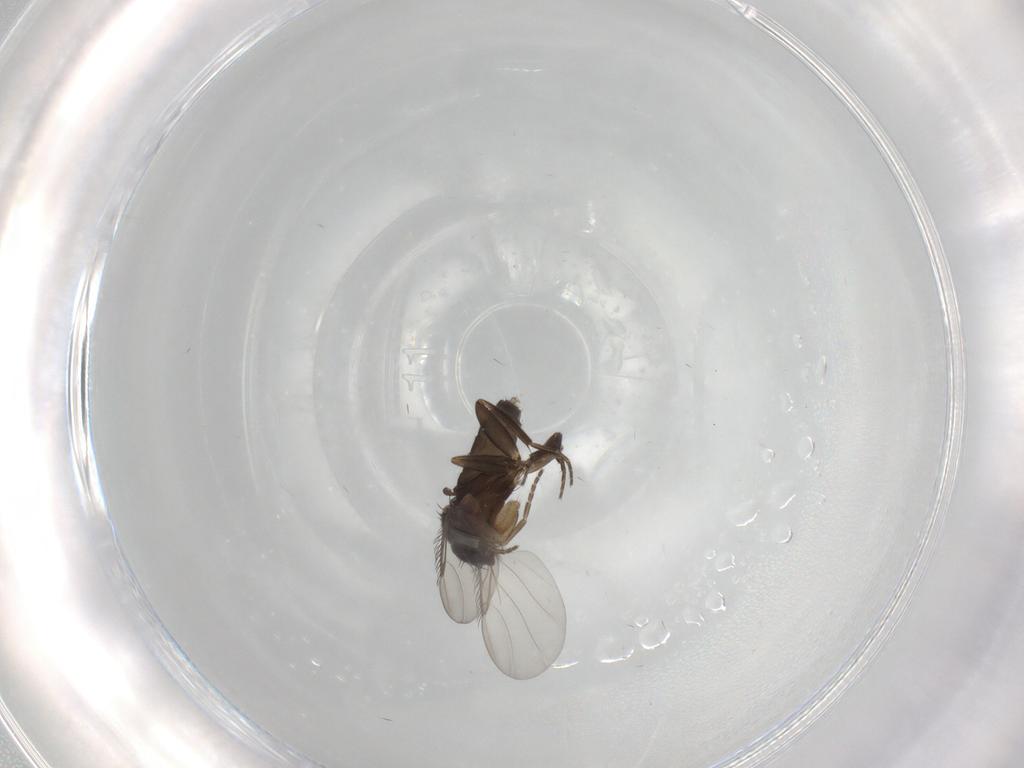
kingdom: Animalia
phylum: Arthropoda
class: Insecta
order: Diptera
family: Phoridae
